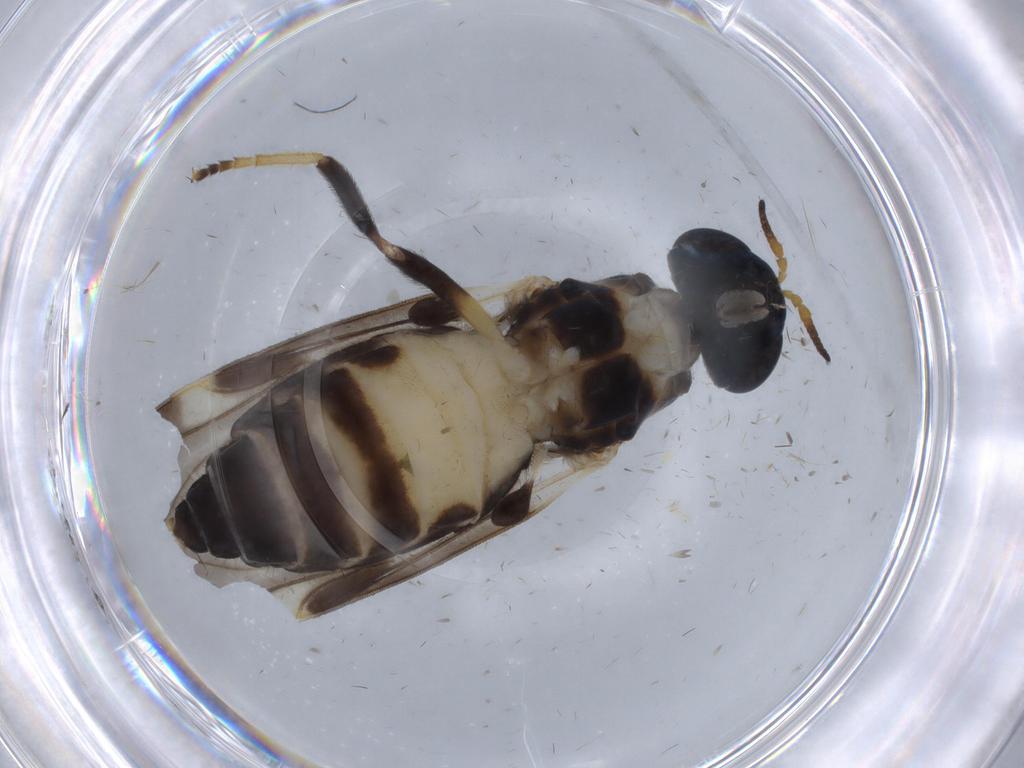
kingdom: Animalia
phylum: Arthropoda
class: Insecta
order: Diptera
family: Stratiomyidae
